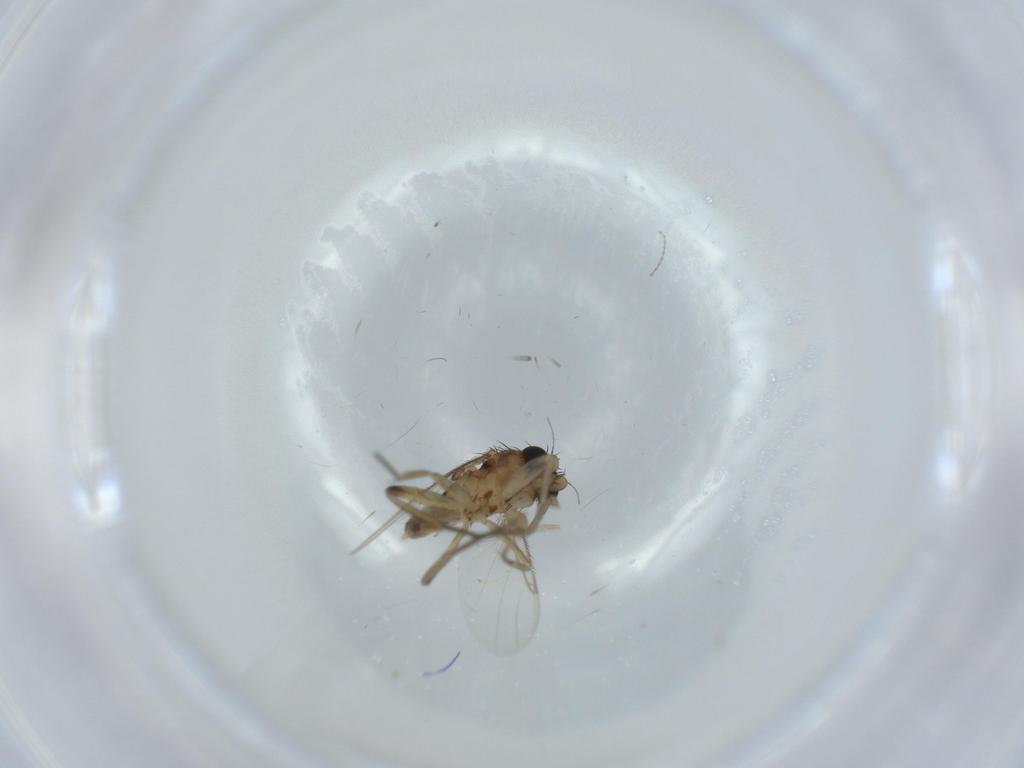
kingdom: Animalia
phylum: Arthropoda
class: Insecta
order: Diptera
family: Phoridae
